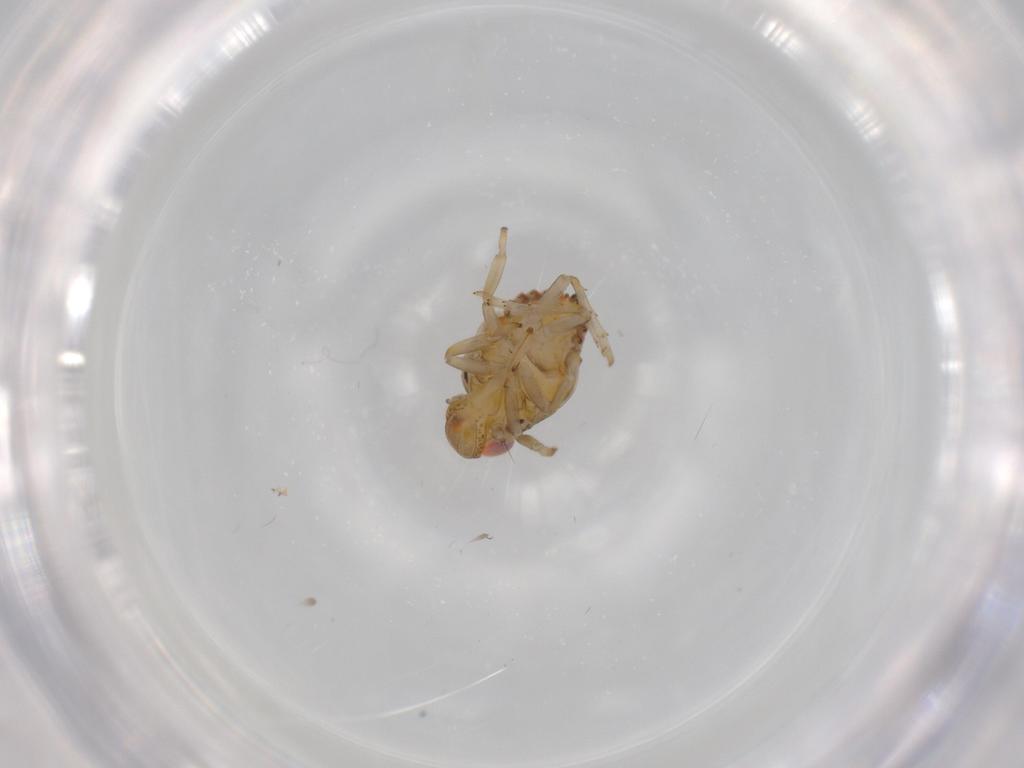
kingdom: Animalia
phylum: Arthropoda
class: Insecta
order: Hemiptera
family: Issidae
